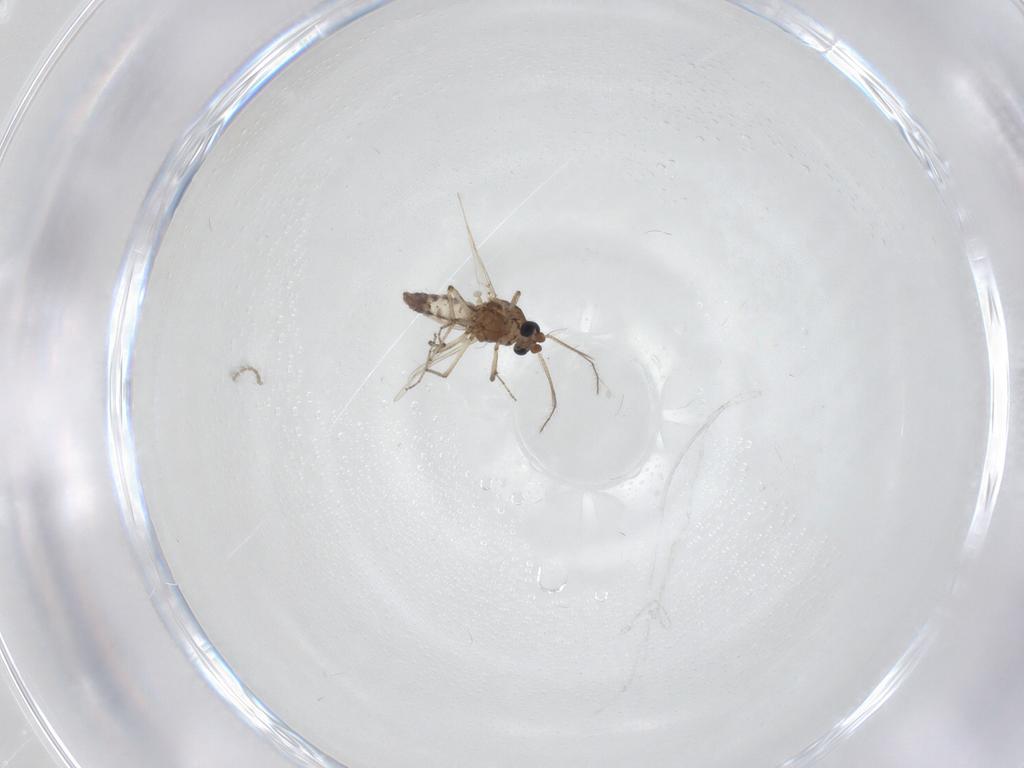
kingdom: Animalia
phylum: Arthropoda
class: Insecta
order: Diptera
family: Ceratopogonidae
